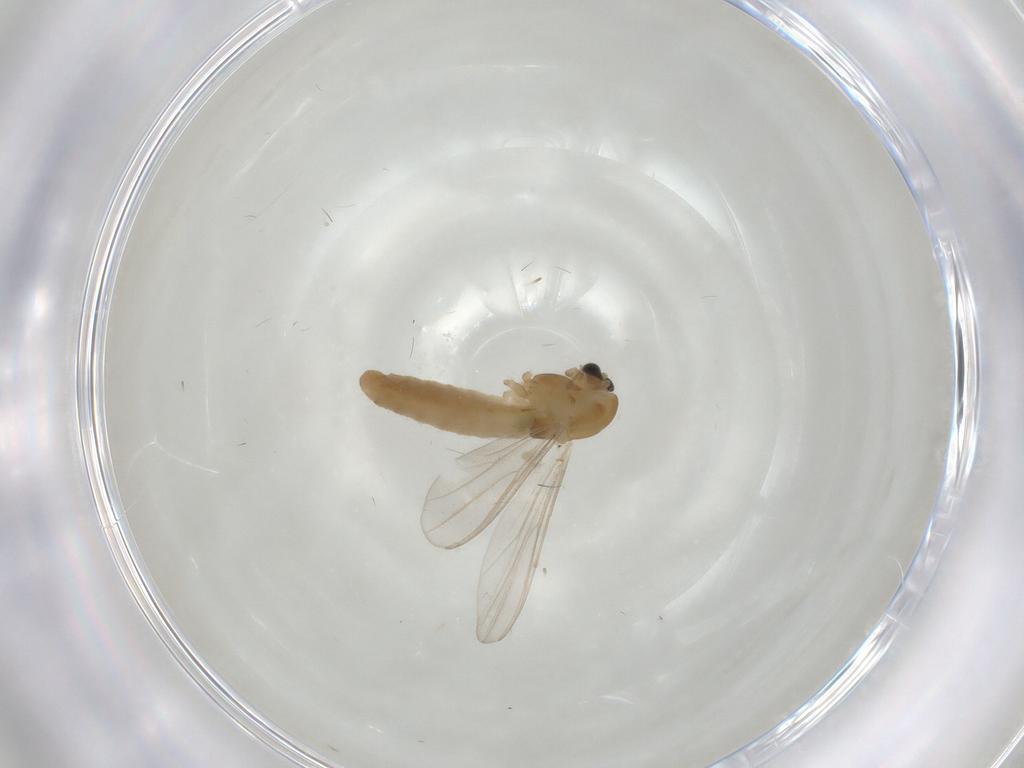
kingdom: Animalia
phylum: Arthropoda
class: Insecta
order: Diptera
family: Chironomidae
